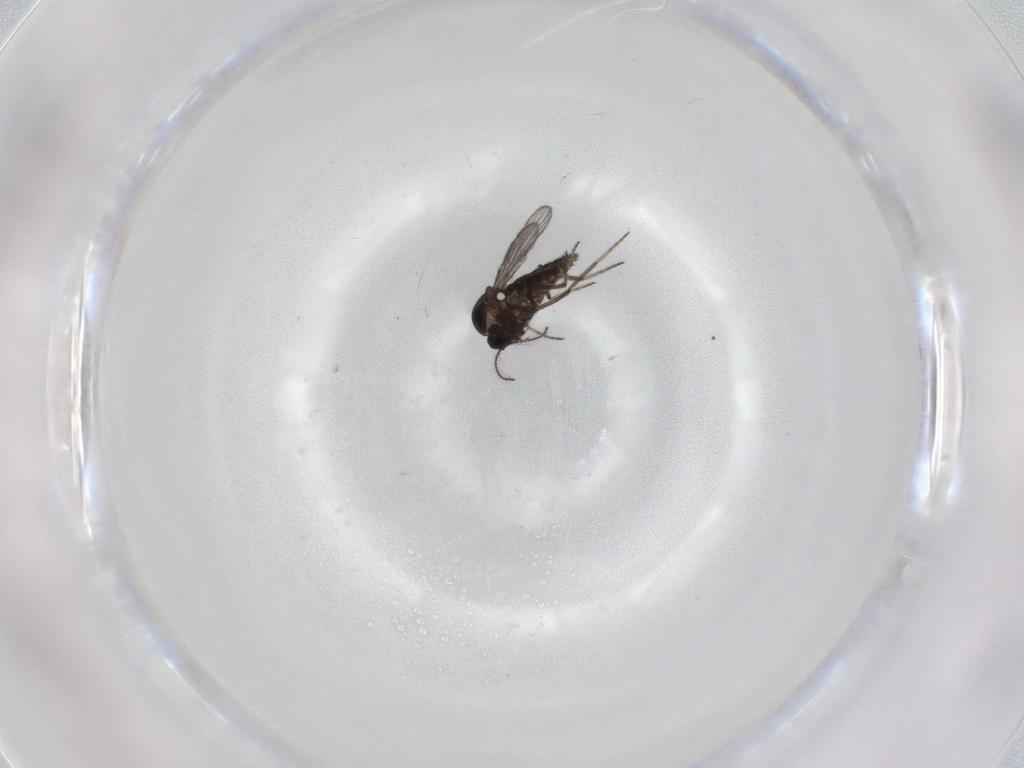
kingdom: Animalia
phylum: Arthropoda
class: Insecta
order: Diptera
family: Ceratopogonidae
